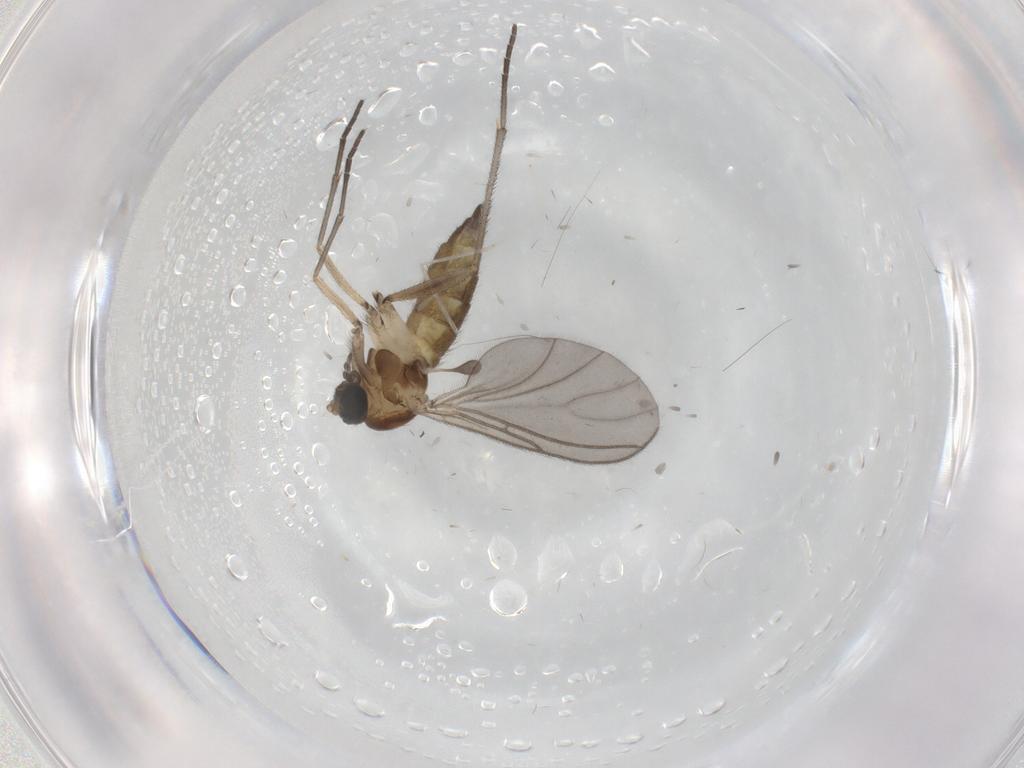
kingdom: Animalia
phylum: Arthropoda
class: Insecta
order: Diptera
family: Sciaridae
